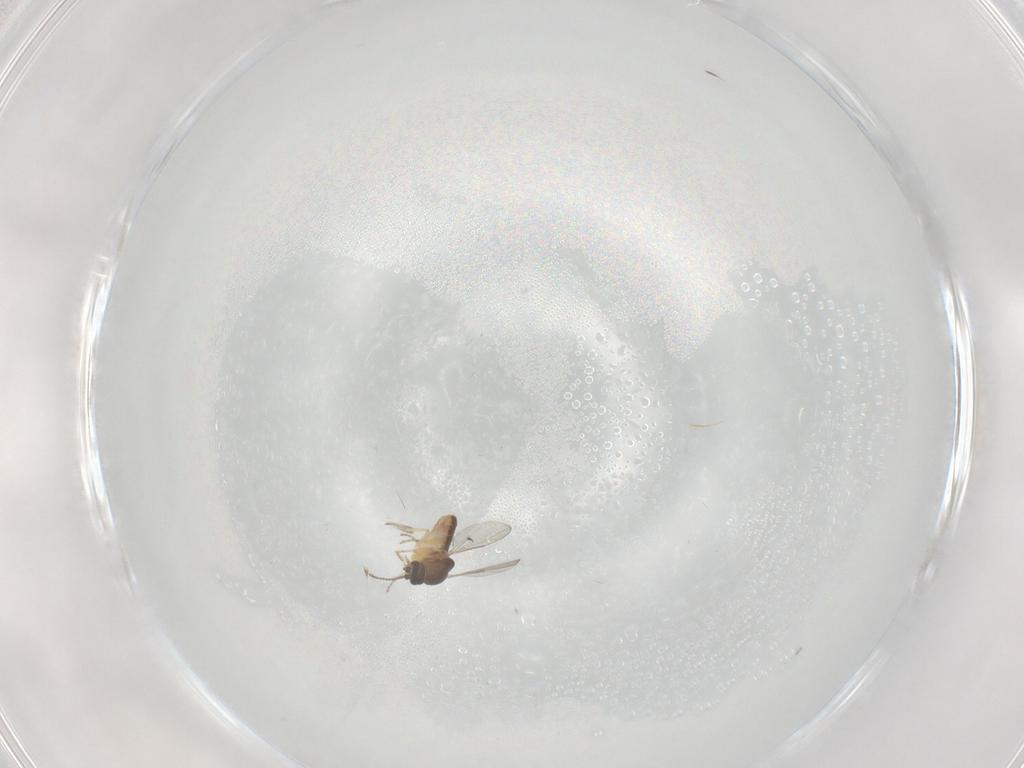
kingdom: Animalia
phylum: Arthropoda
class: Insecta
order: Diptera
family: Ceratopogonidae
